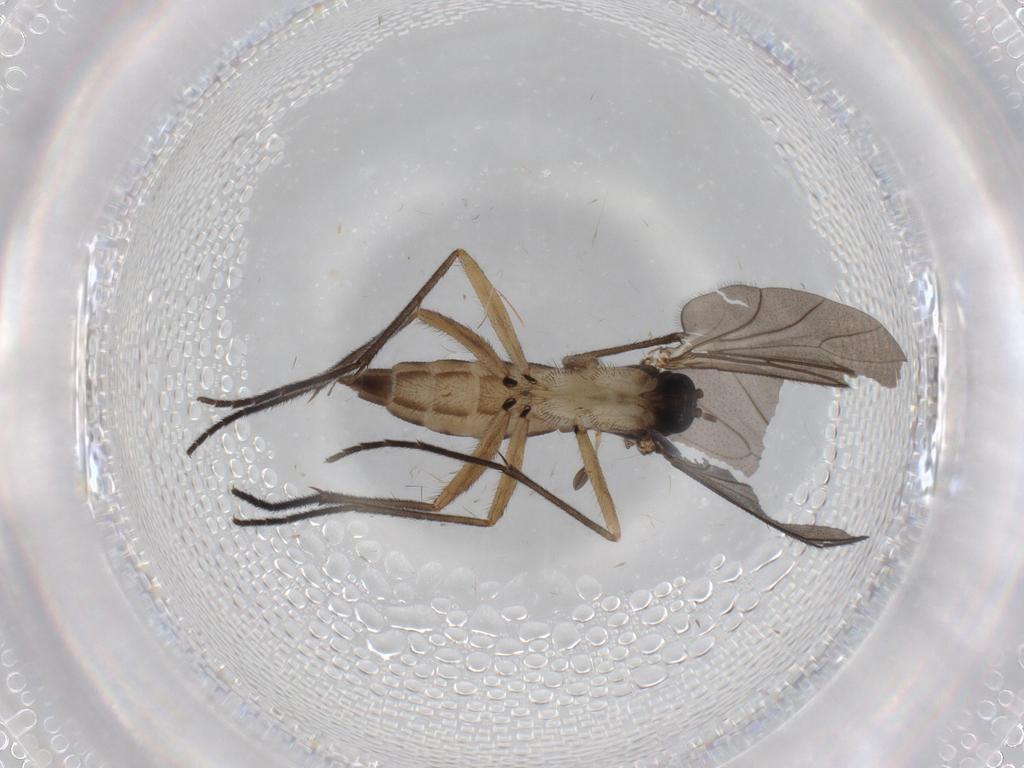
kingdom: Animalia
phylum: Arthropoda
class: Insecta
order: Diptera
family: Sciaridae
